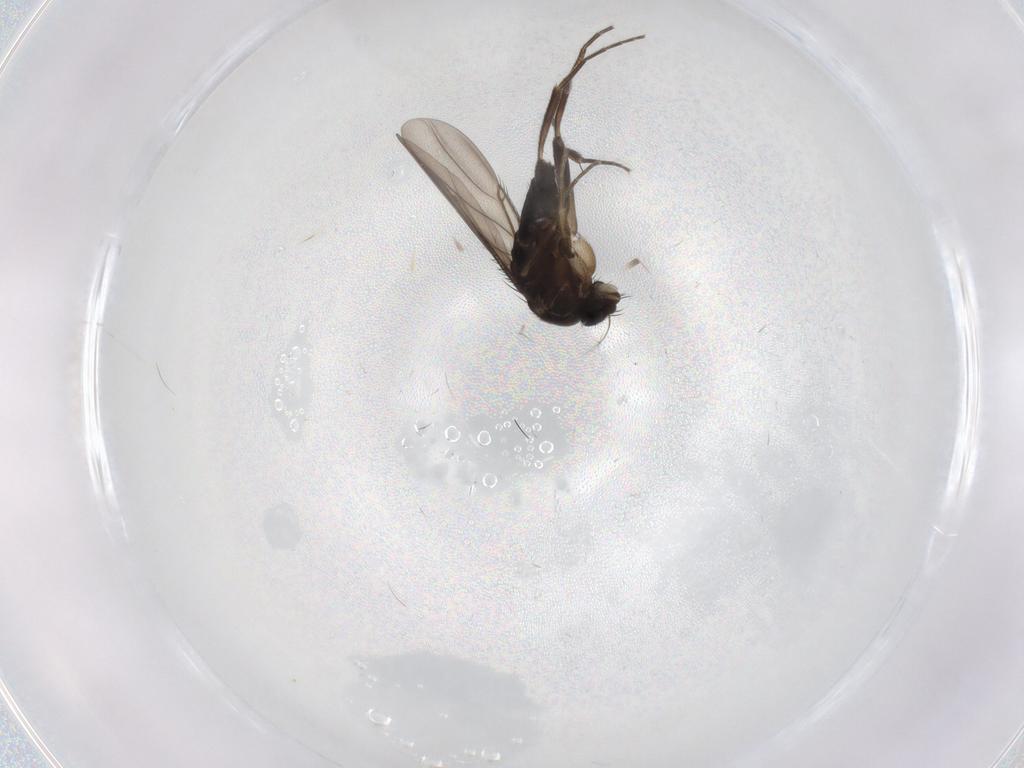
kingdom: Animalia
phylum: Arthropoda
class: Insecta
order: Diptera
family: Phoridae
